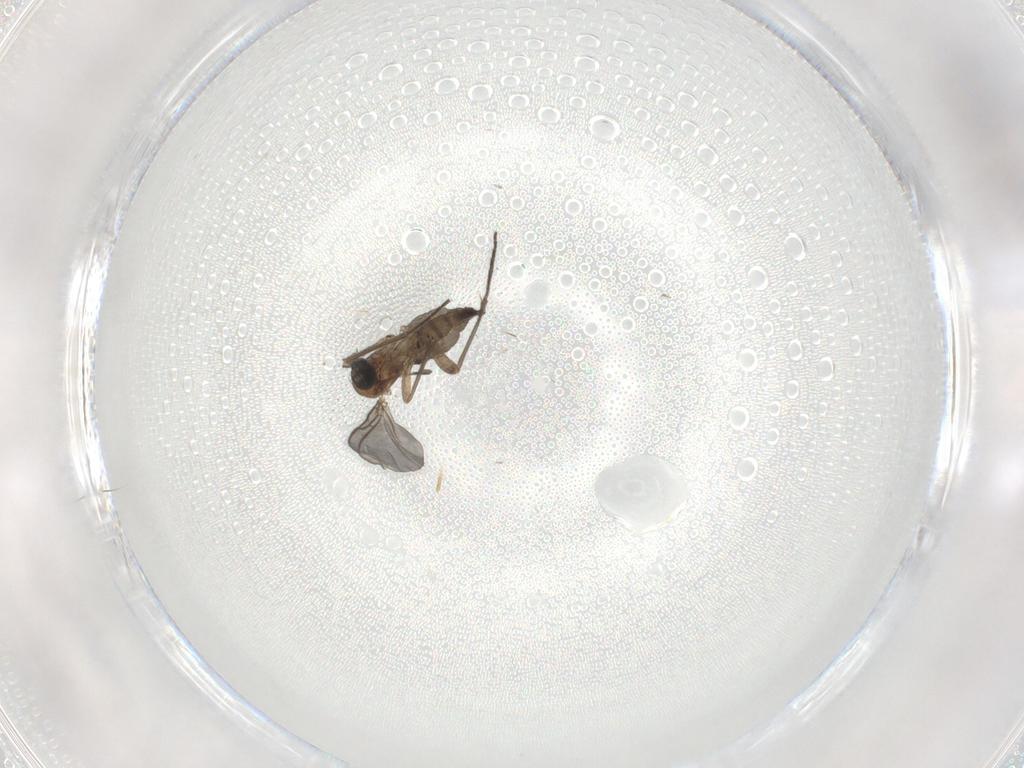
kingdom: Animalia
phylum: Arthropoda
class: Insecta
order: Diptera
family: Sciaridae
